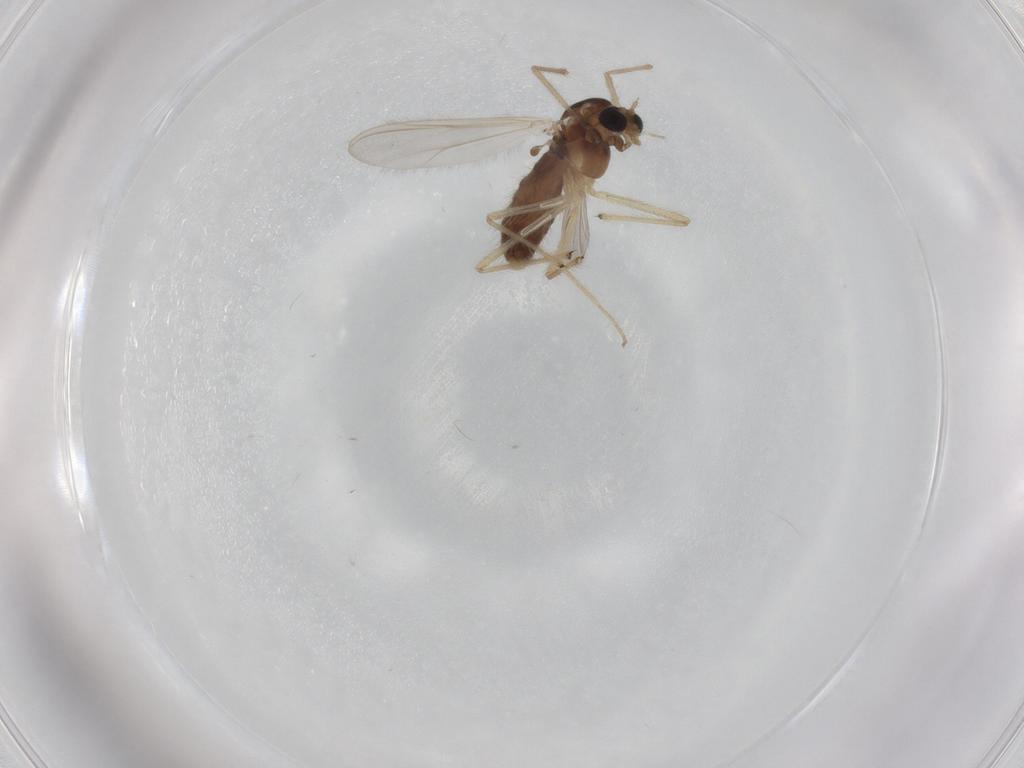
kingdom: Animalia
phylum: Arthropoda
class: Insecta
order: Diptera
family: Chironomidae
